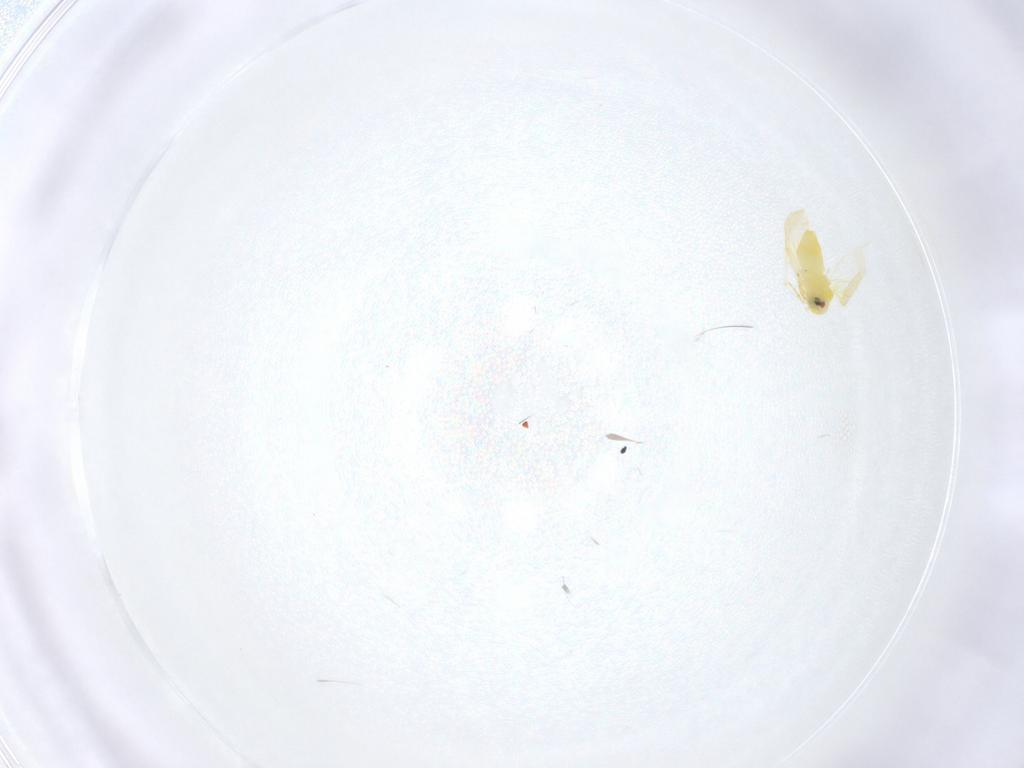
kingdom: Animalia
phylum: Arthropoda
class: Insecta
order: Hemiptera
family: Aleyrodidae
